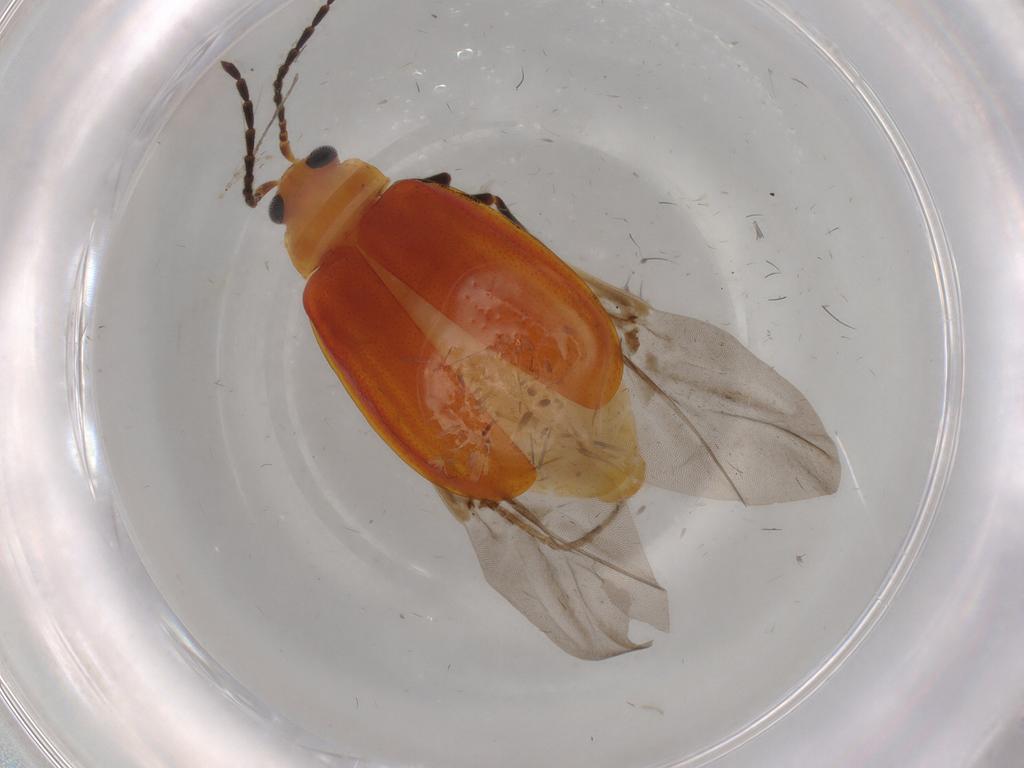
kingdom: Animalia
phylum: Arthropoda
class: Insecta
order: Coleoptera
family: Chrysomelidae
